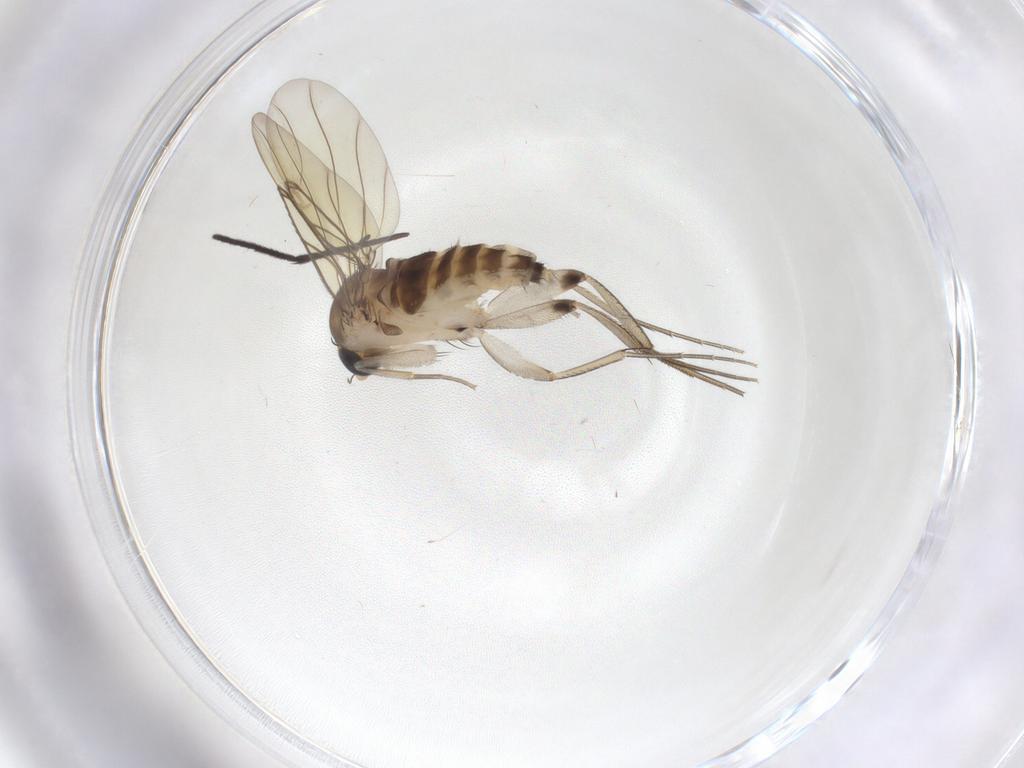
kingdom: Animalia
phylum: Arthropoda
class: Insecta
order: Diptera
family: Phoridae
